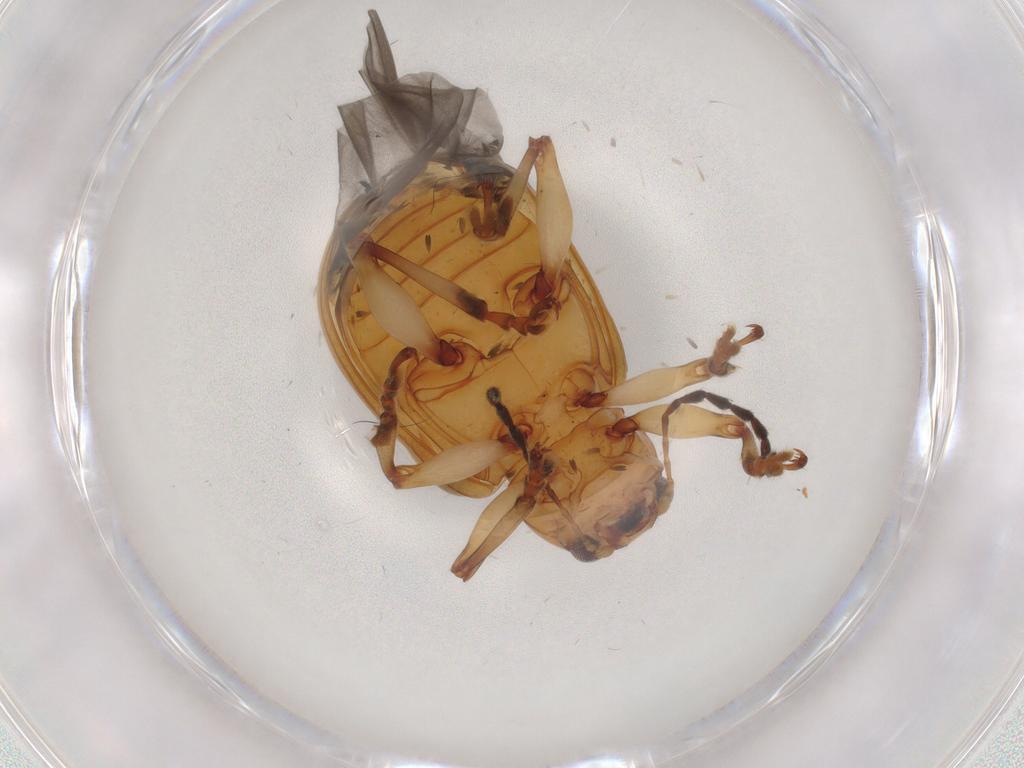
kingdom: Animalia
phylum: Arthropoda
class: Insecta
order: Coleoptera
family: Chrysomelidae
